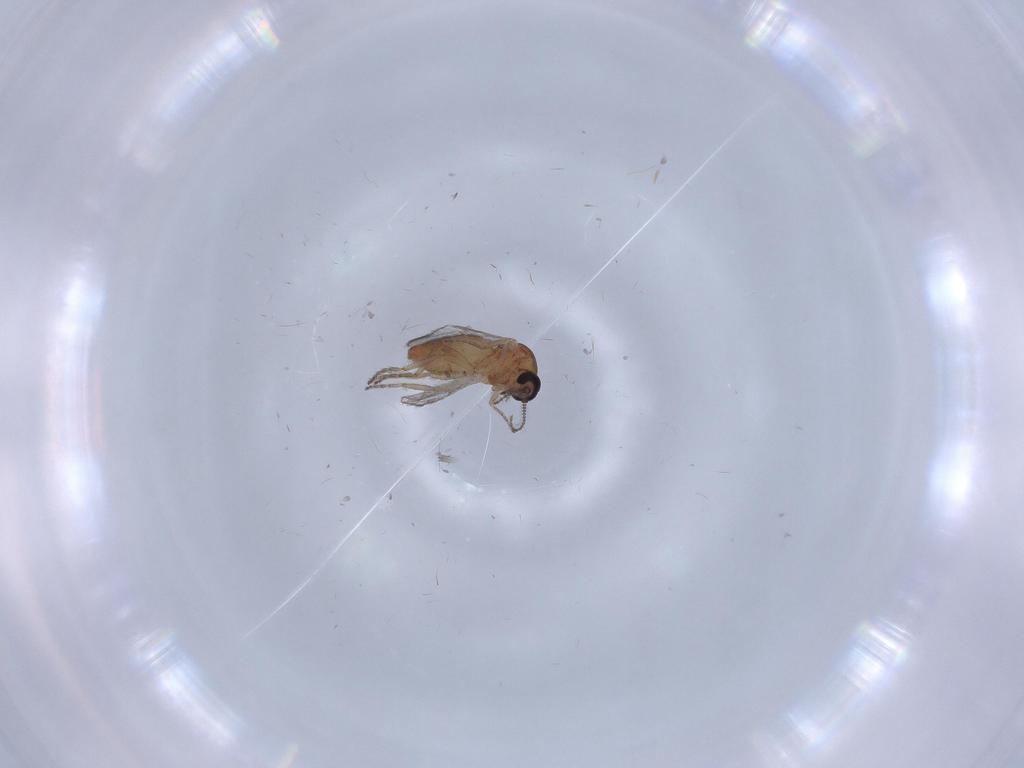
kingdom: Animalia
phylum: Arthropoda
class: Insecta
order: Diptera
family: Ceratopogonidae
